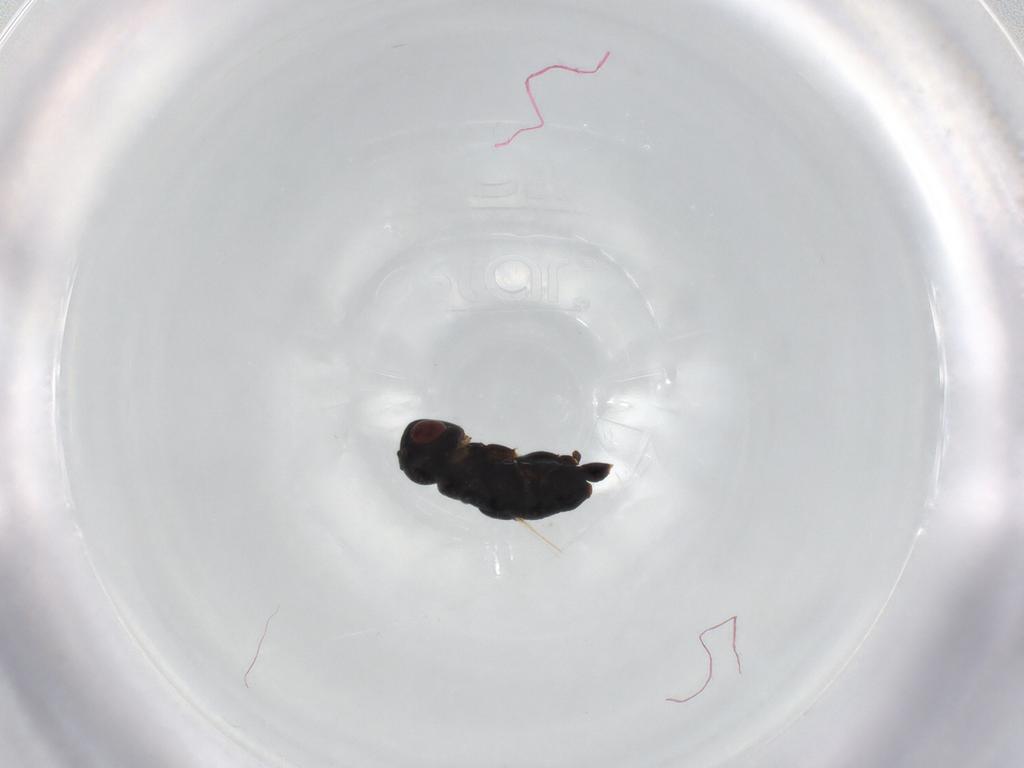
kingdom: Animalia
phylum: Arthropoda
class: Insecta
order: Hymenoptera
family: Eurytomidae
